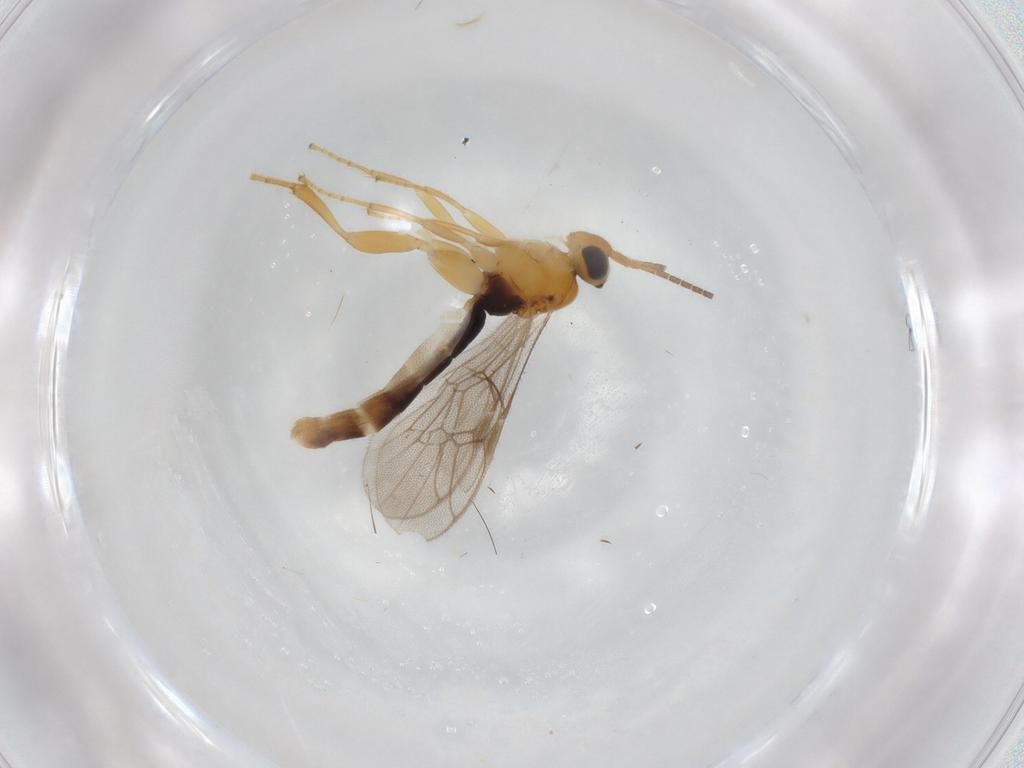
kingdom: Animalia
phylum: Arthropoda
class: Insecta
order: Hymenoptera
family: Ichneumonidae
